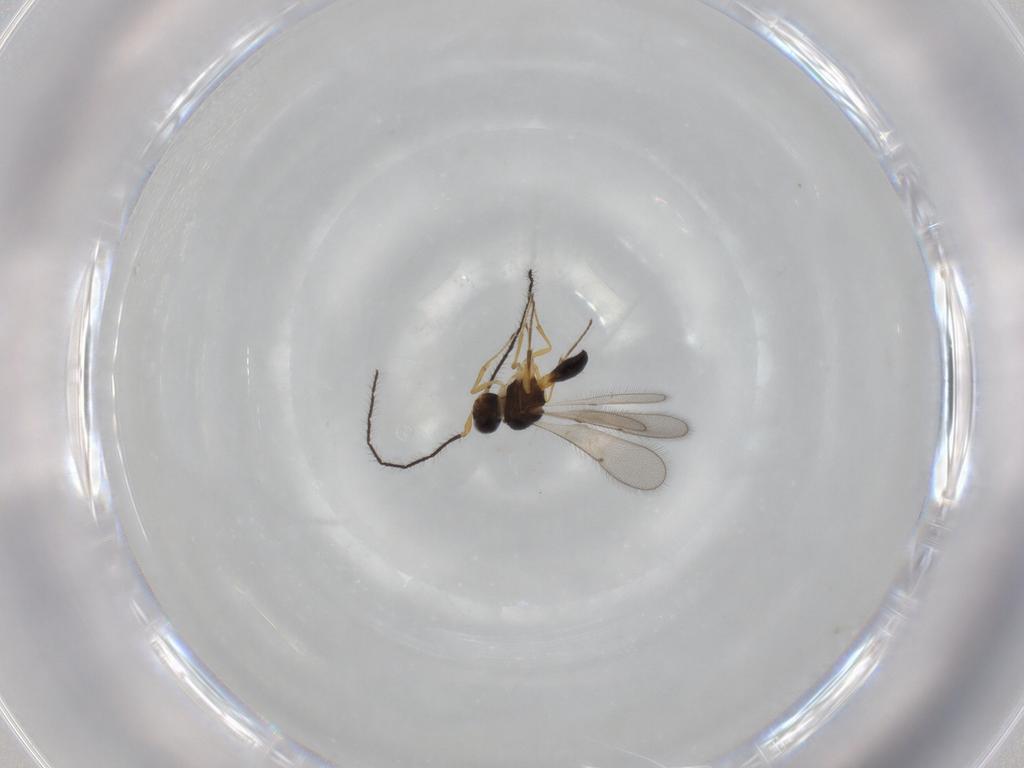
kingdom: Animalia
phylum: Arthropoda
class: Insecta
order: Hymenoptera
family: Scelionidae
